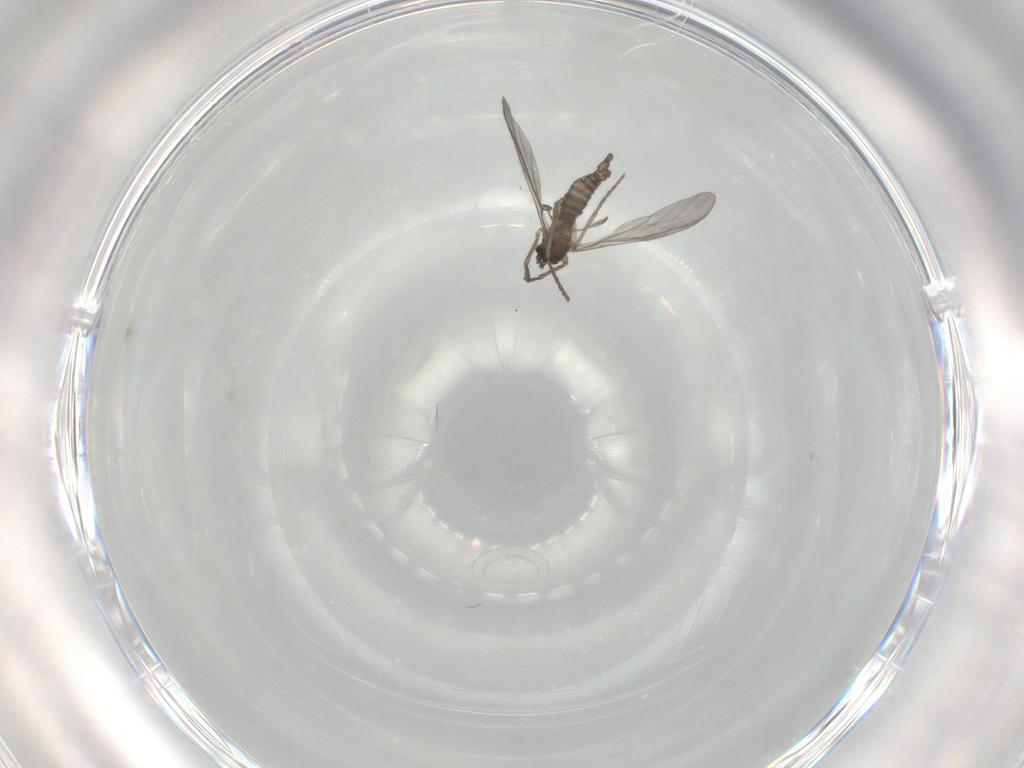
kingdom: Animalia
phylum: Arthropoda
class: Insecta
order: Diptera
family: Sciaridae
